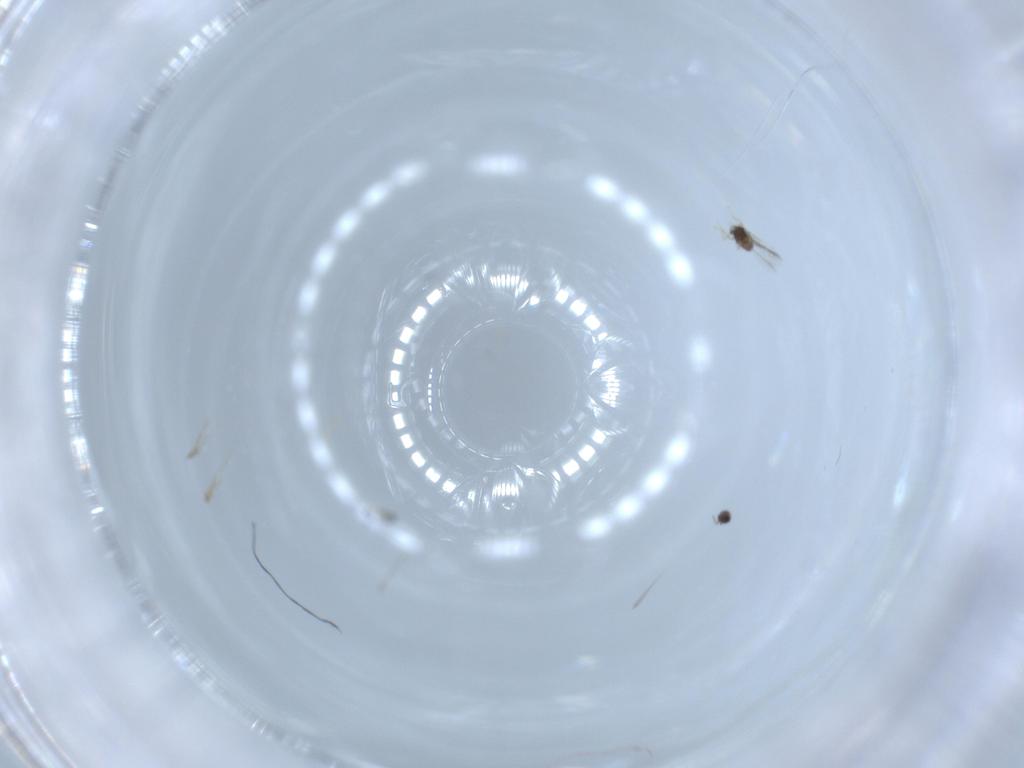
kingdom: Animalia
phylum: Arthropoda
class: Insecta
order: Hymenoptera
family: Mymaridae
